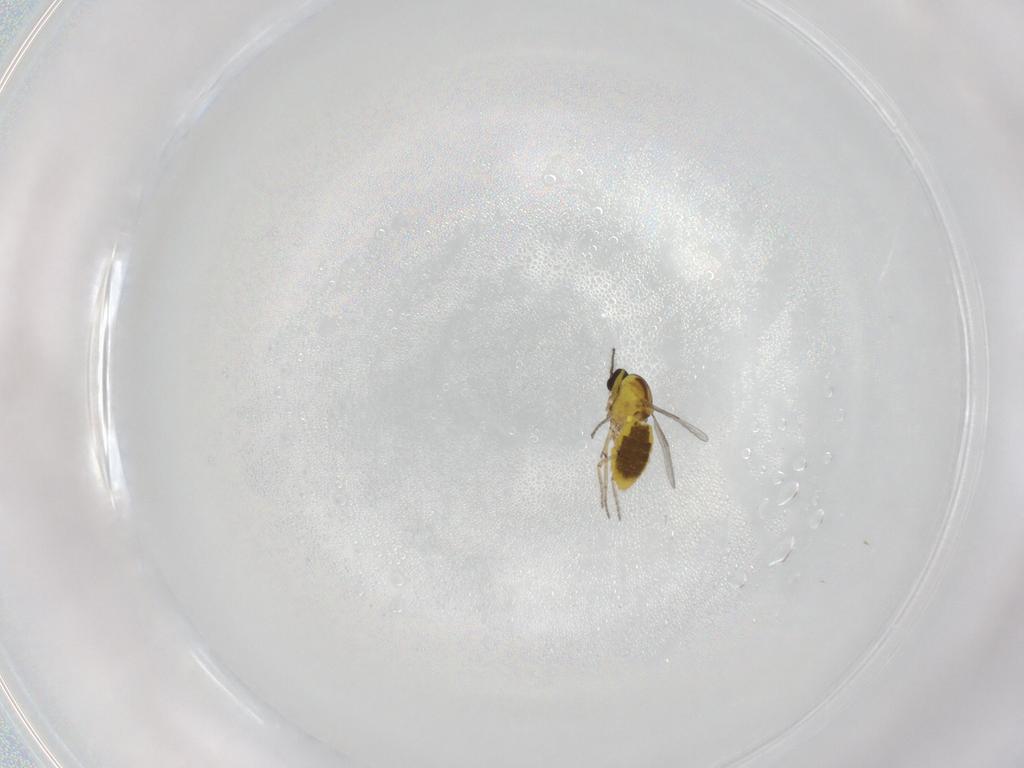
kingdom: Animalia
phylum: Arthropoda
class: Insecta
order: Diptera
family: Ceratopogonidae
